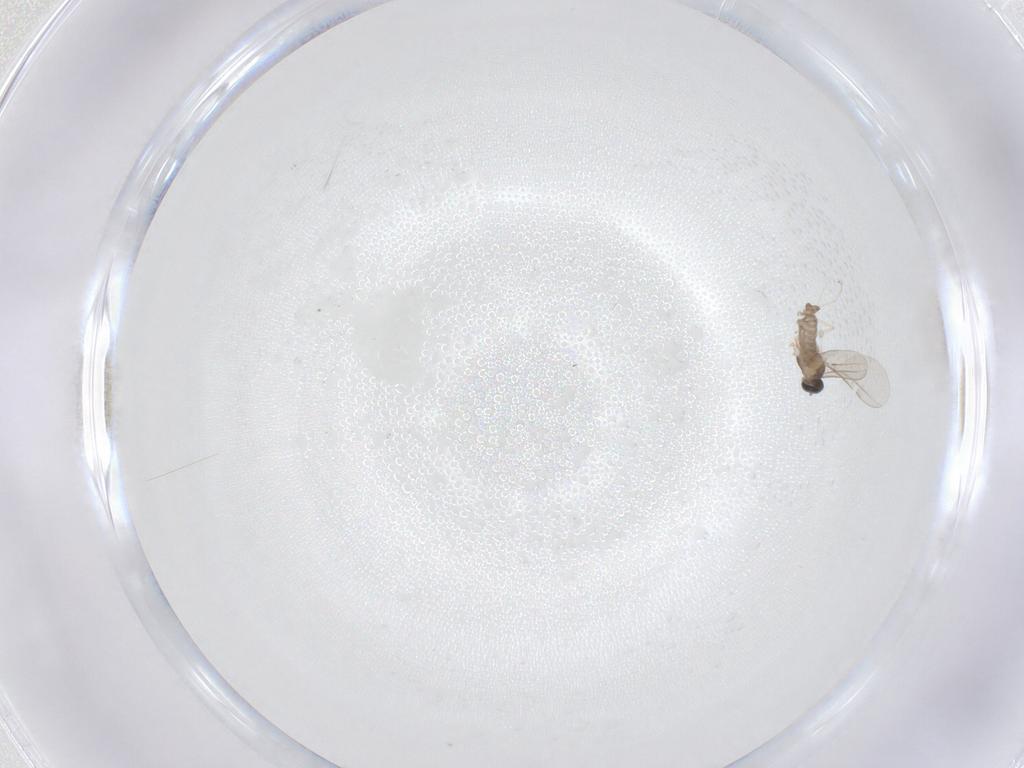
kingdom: Animalia
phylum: Arthropoda
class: Insecta
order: Diptera
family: Cecidomyiidae
